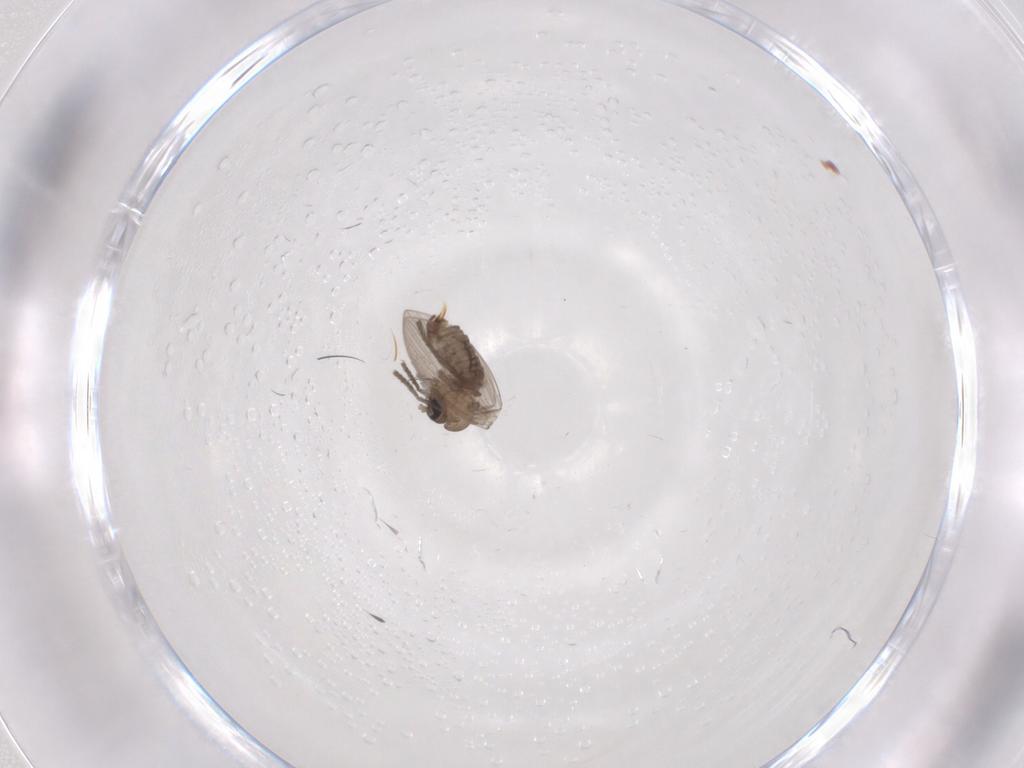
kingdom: Animalia
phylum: Arthropoda
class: Insecta
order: Diptera
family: Psychodidae
